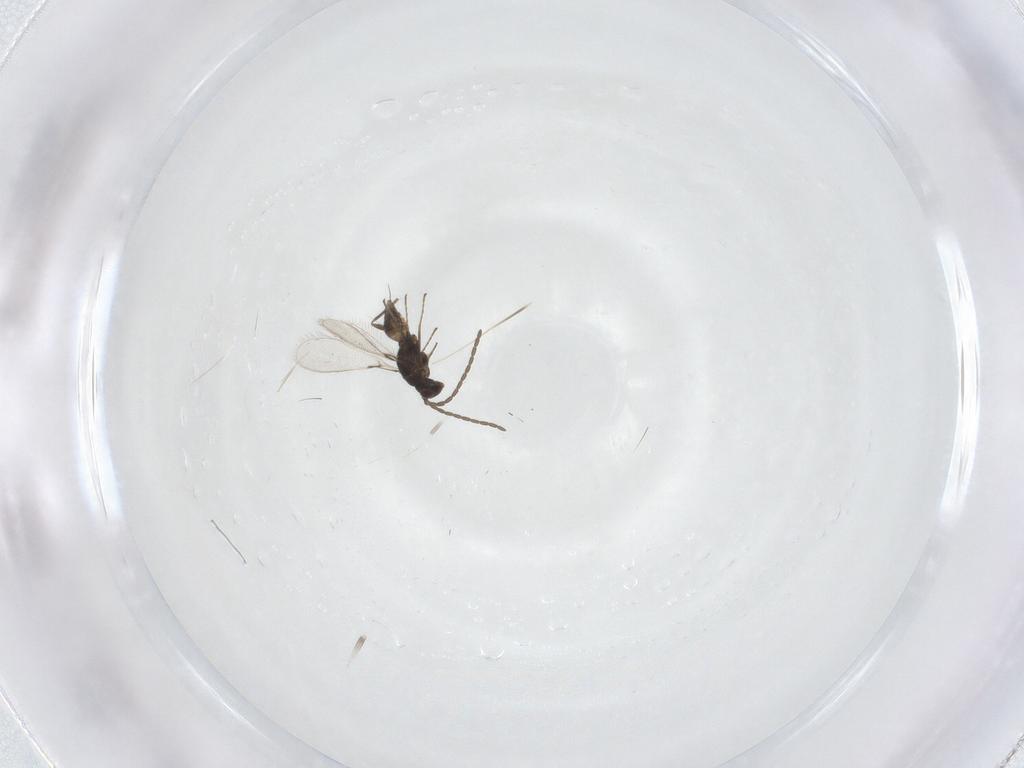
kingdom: Animalia
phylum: Arthropoda
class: Insecta
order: Hymenoptera
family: Mymaridae
